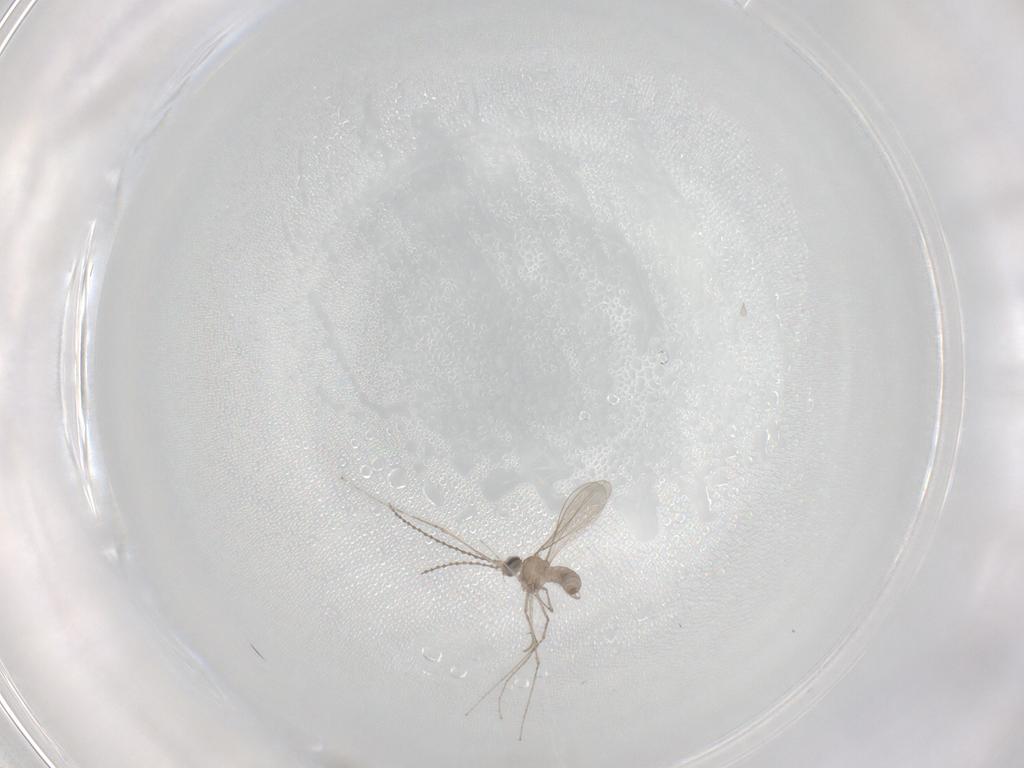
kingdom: Animalia
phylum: Arthropoda
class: Insecta
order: Diptera
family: Cecidomyiidae
